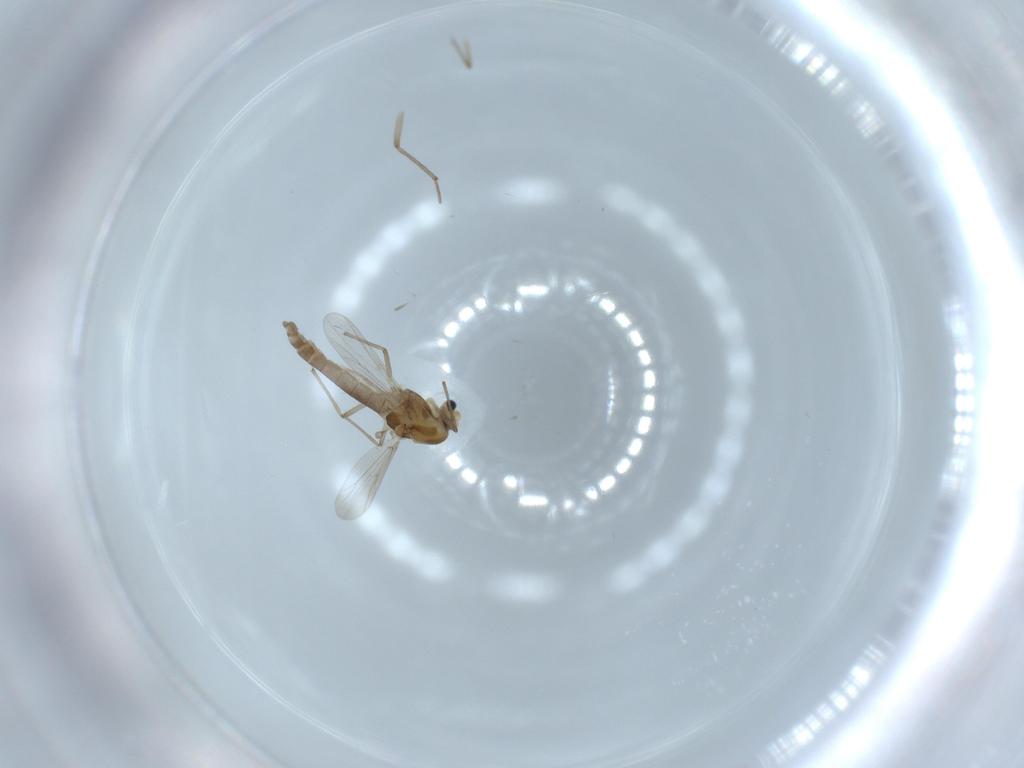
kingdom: Animalia
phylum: Arthropoda
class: Insecta
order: Diptera
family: Chironomidae
